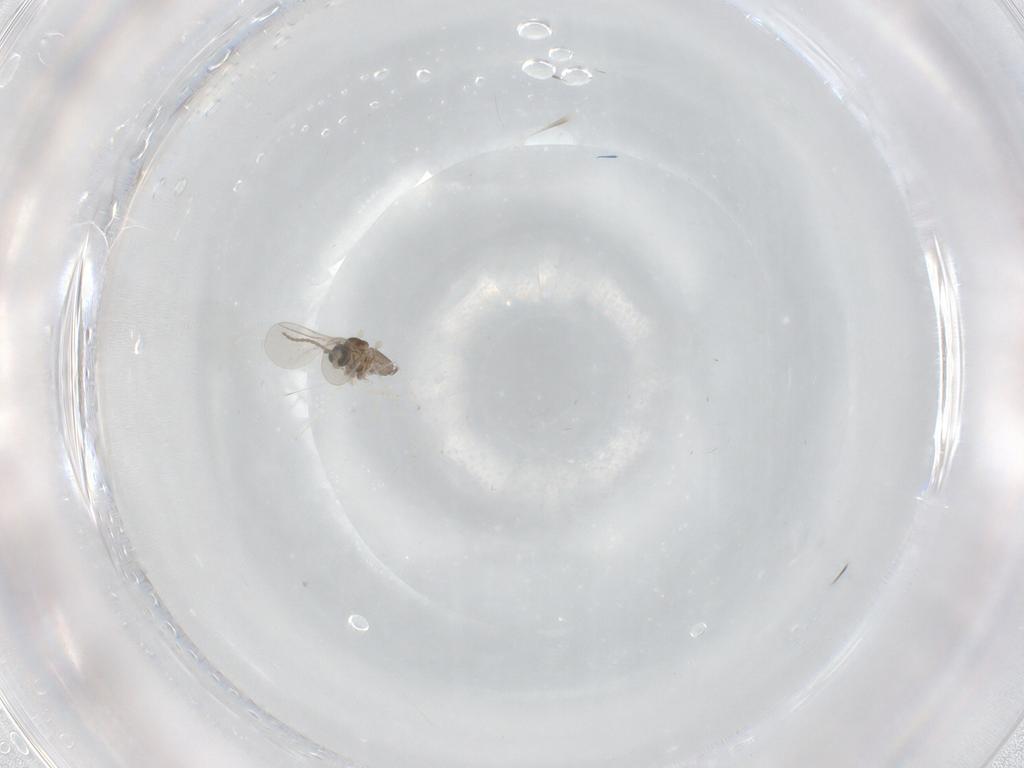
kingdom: Animalia
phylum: Arthropoda
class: Insecta
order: Diptera
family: Cecidomyiidae
